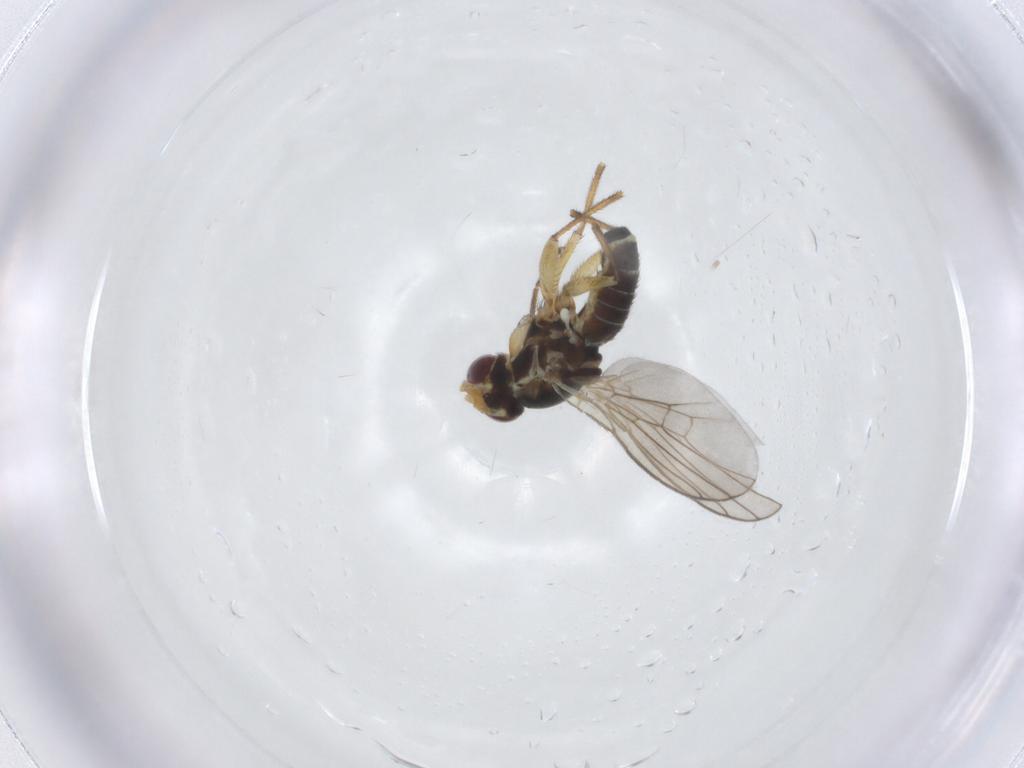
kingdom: Animalia
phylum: Arthropoda
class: Insecta
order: Diptera
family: Agromyzidae
